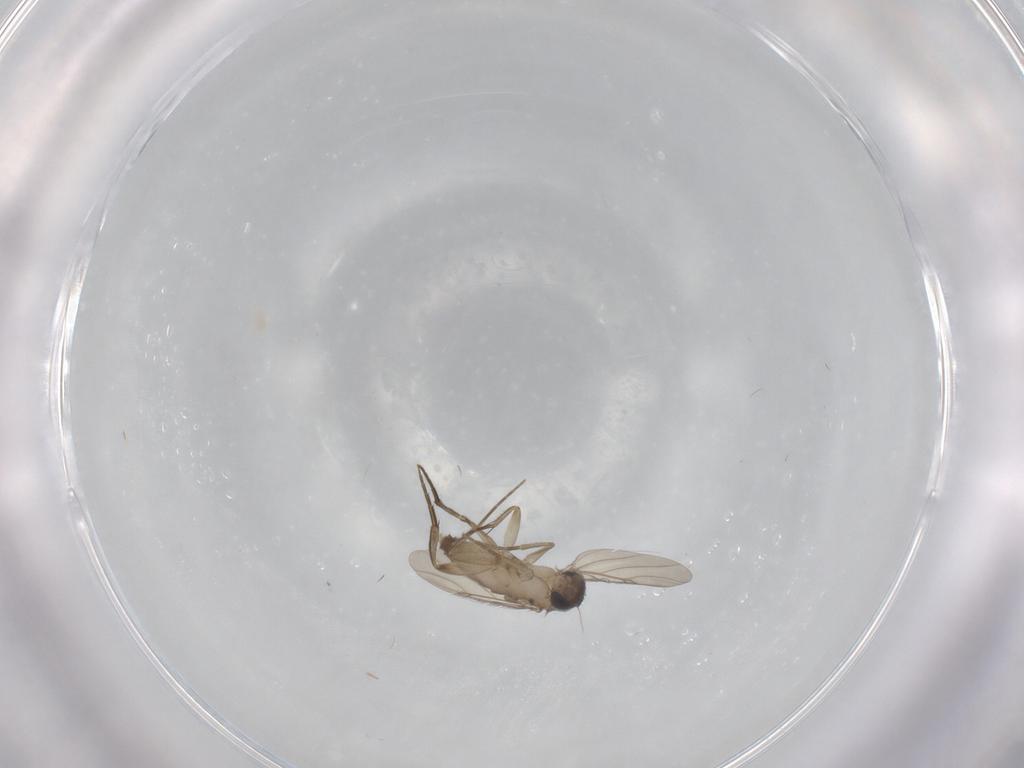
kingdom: Animalia
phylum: Arthropoda
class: Insecta
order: Diptera
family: Phoridae
